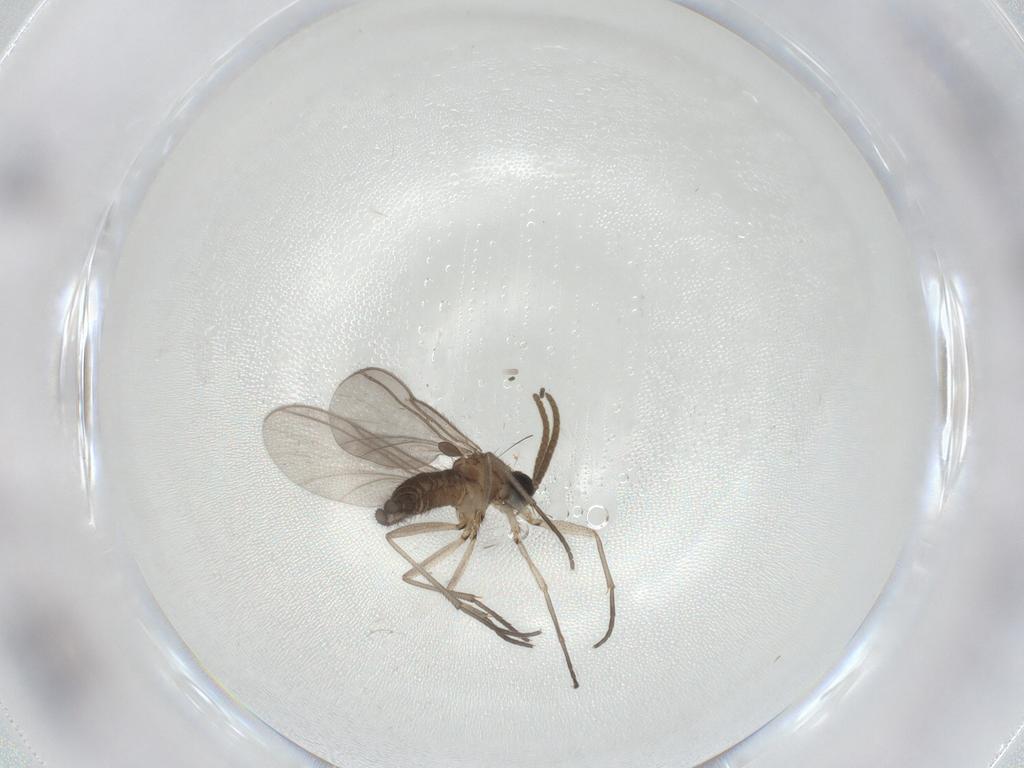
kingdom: Animalia
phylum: Arthropoda
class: Insecta
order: Diptera
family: Sciaridae
